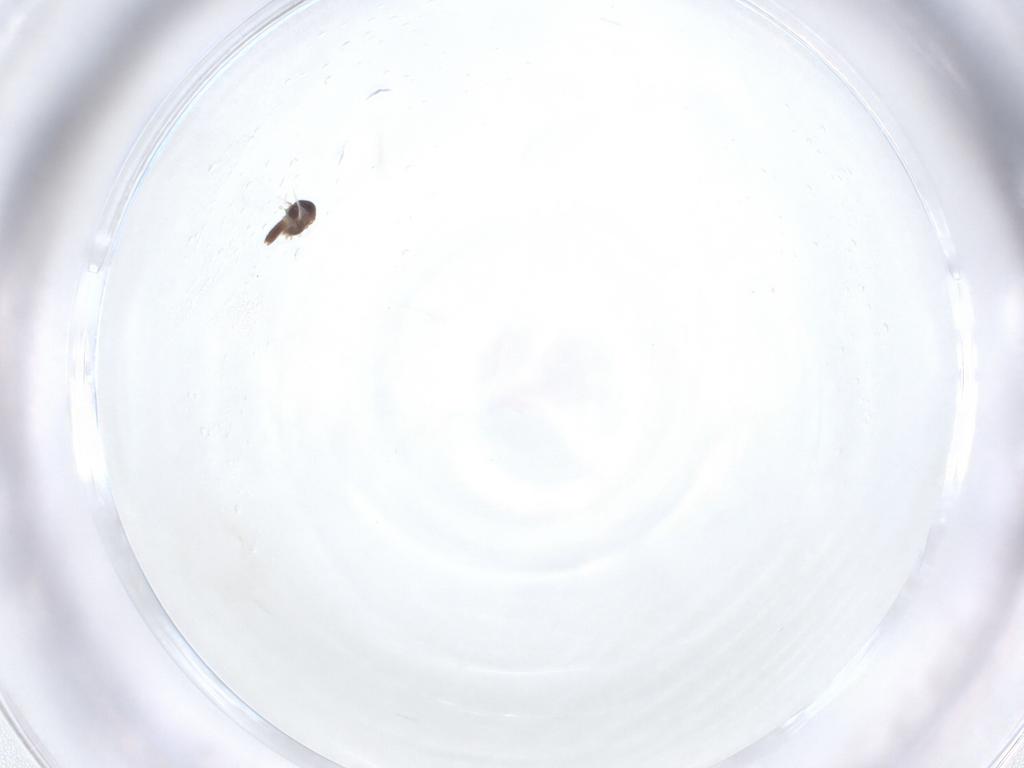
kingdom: Animalia
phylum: Arthropoda
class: Insecta
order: Diptera
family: Chironomidae
